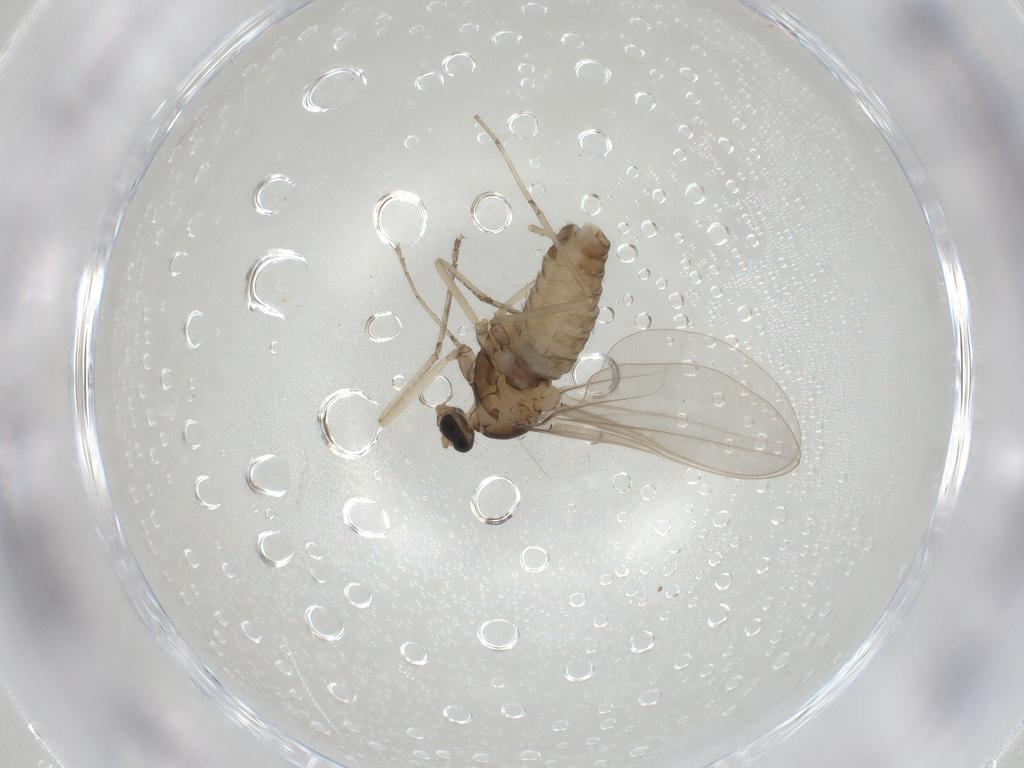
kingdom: Animalia
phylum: Arthropoda
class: Insecta
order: Diptera
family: Cecidomyiidae
